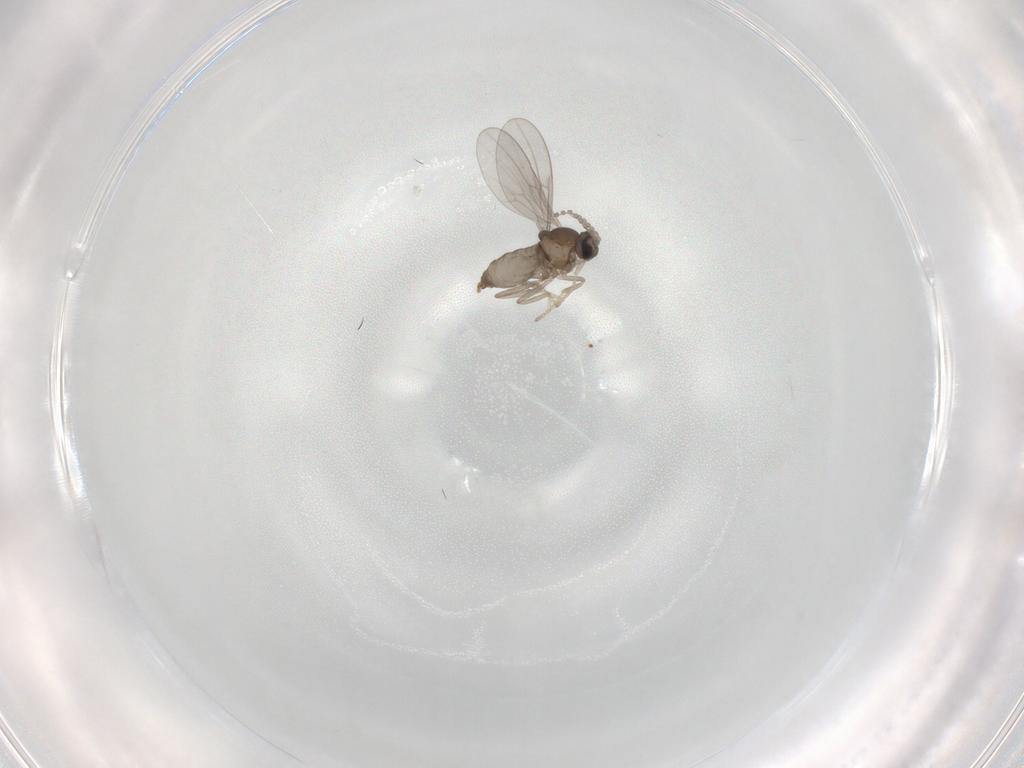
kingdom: Animalia
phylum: Arthropoda
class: Insecta
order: Diptera
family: Cecidomyiidae
